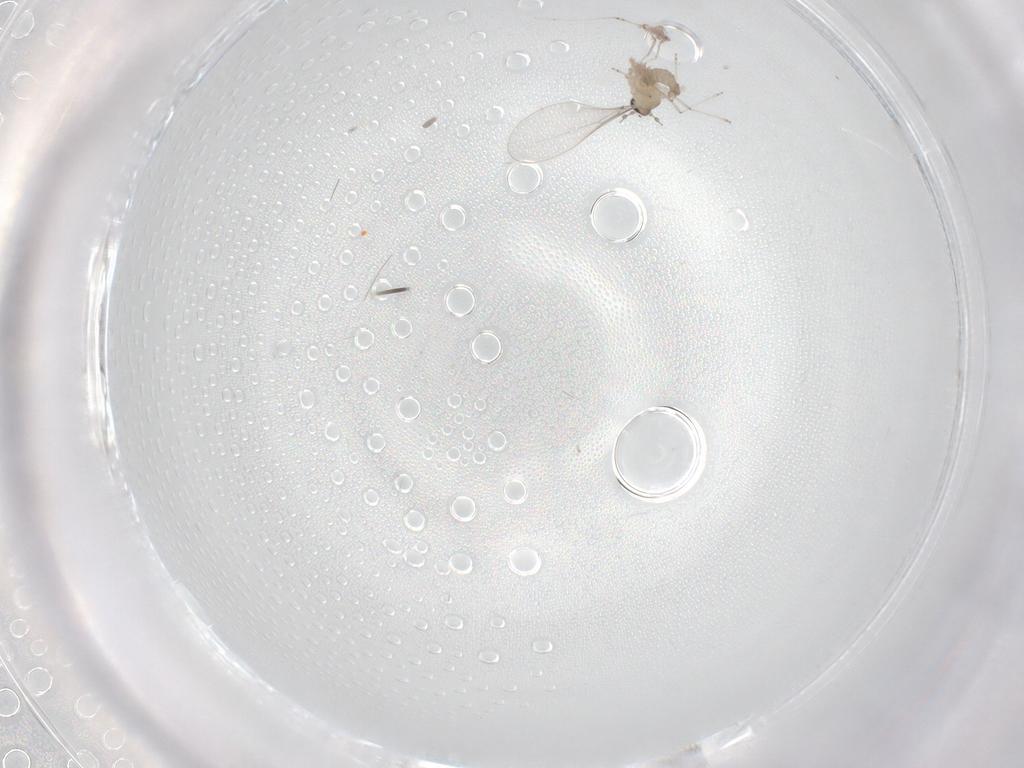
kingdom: Animalia
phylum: Arthropoda
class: Insecta
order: Diptera
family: Cecidomyiidae
